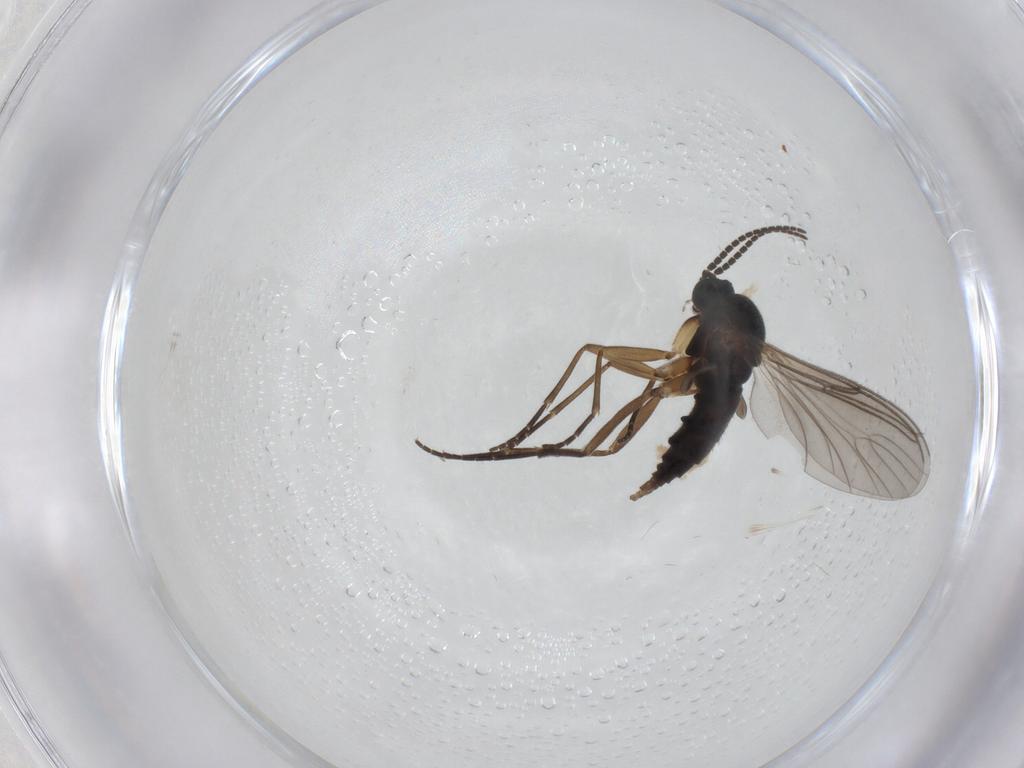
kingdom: Animalia
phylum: Arthropoda
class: Insecta
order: Diptera
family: Sciaridae
